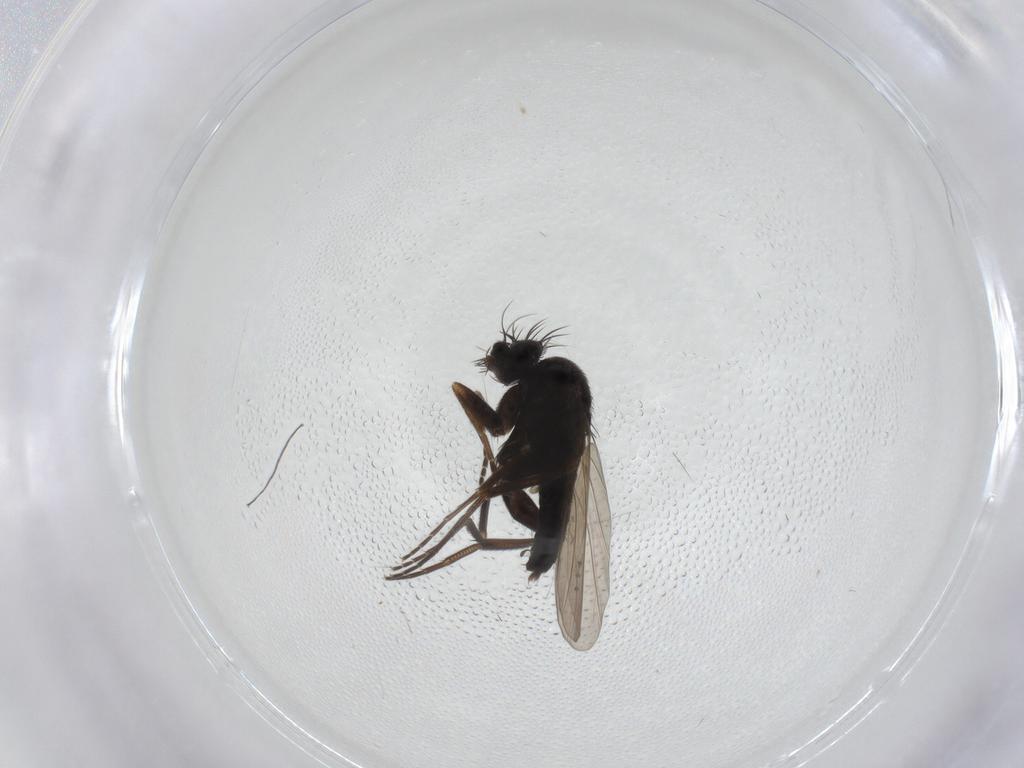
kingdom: Animalia
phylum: Arthropoda
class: Insecta
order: Diptera
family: Phoridae
